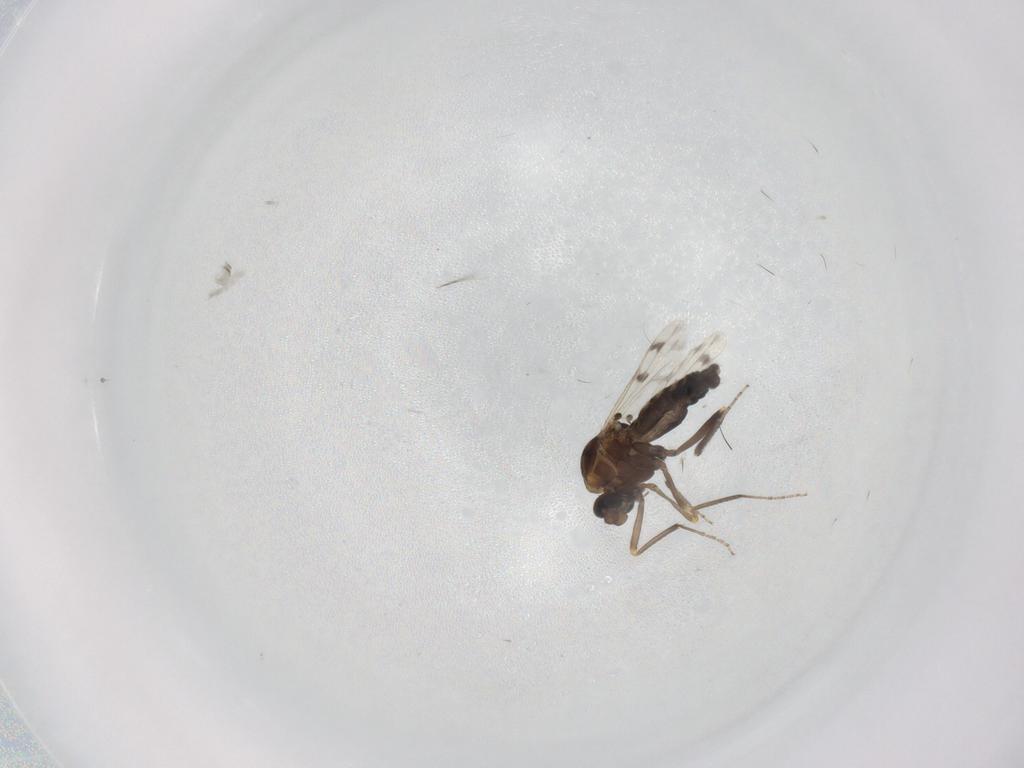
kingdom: Animalia
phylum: Arthropoda
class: Insecta
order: Diptera
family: Ceratopogonidae
